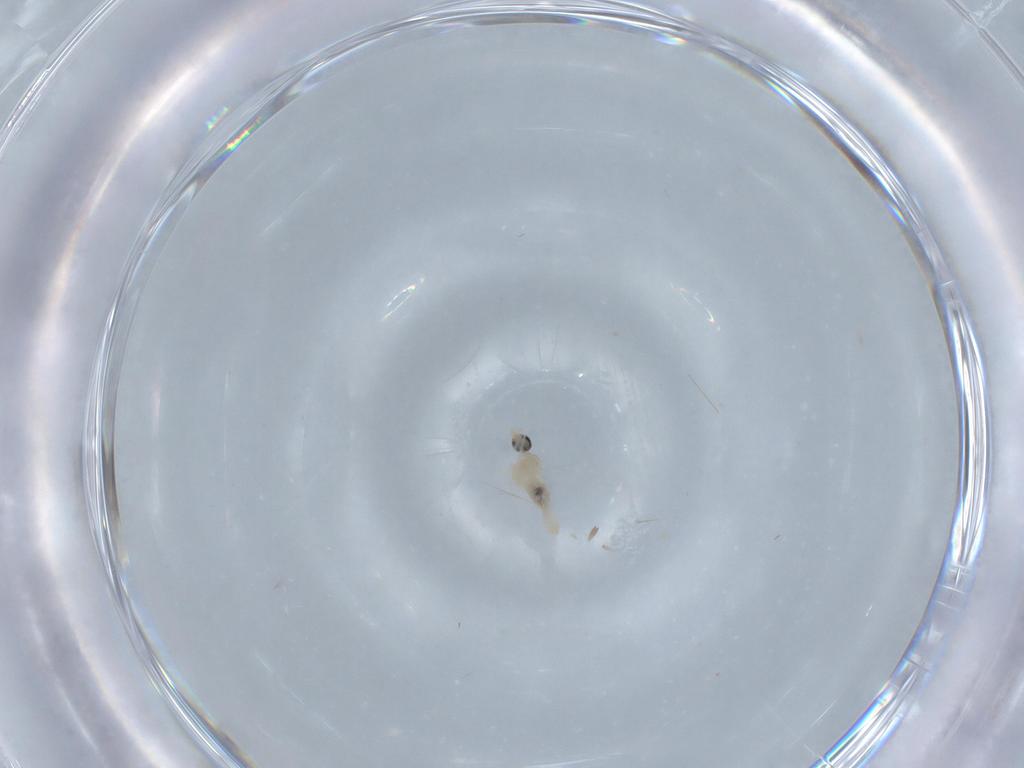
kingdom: Animalia
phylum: Arthropoda
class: Insecta
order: Diptera
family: Cecidomyiidae
